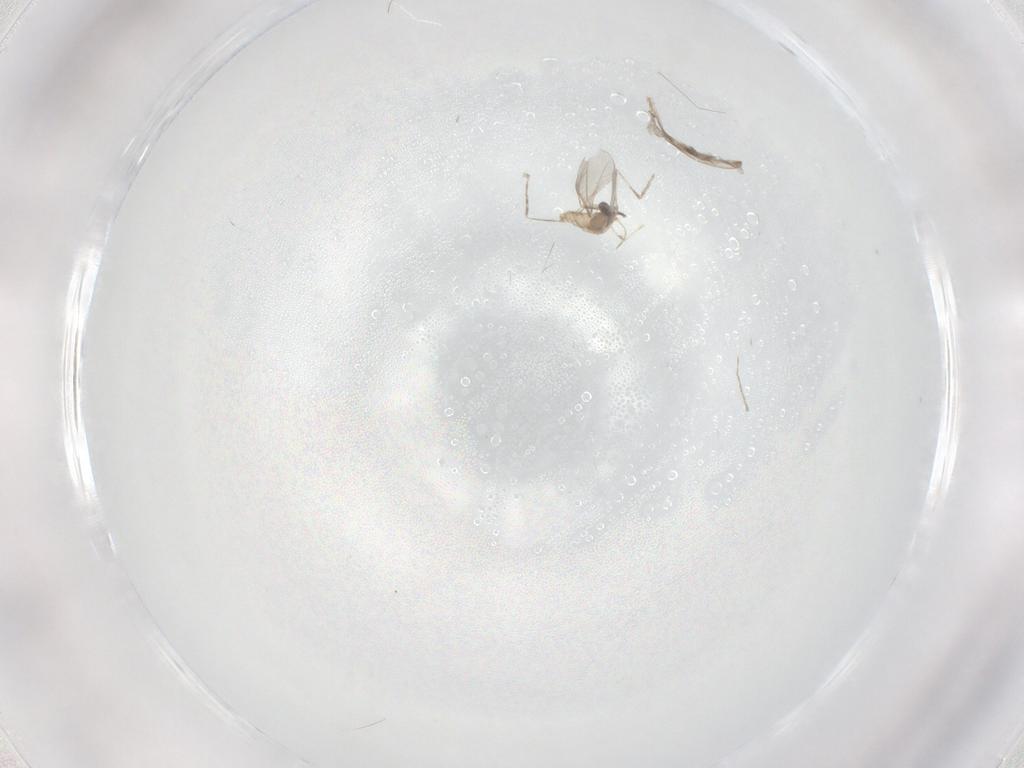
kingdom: Animalia
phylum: Arthropoda
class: Insecta
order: Diptera
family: Cecidomyiidae
